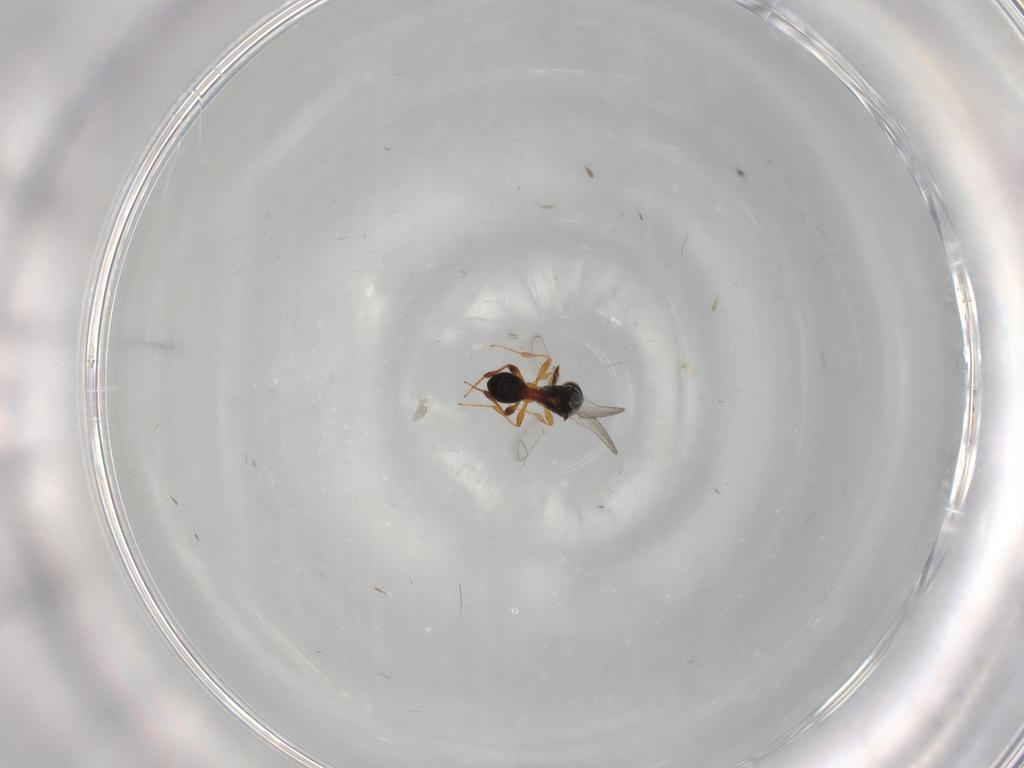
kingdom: Animalia
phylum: Arthropoda
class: Insecta
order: Hymenoptera
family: Platygastridae
